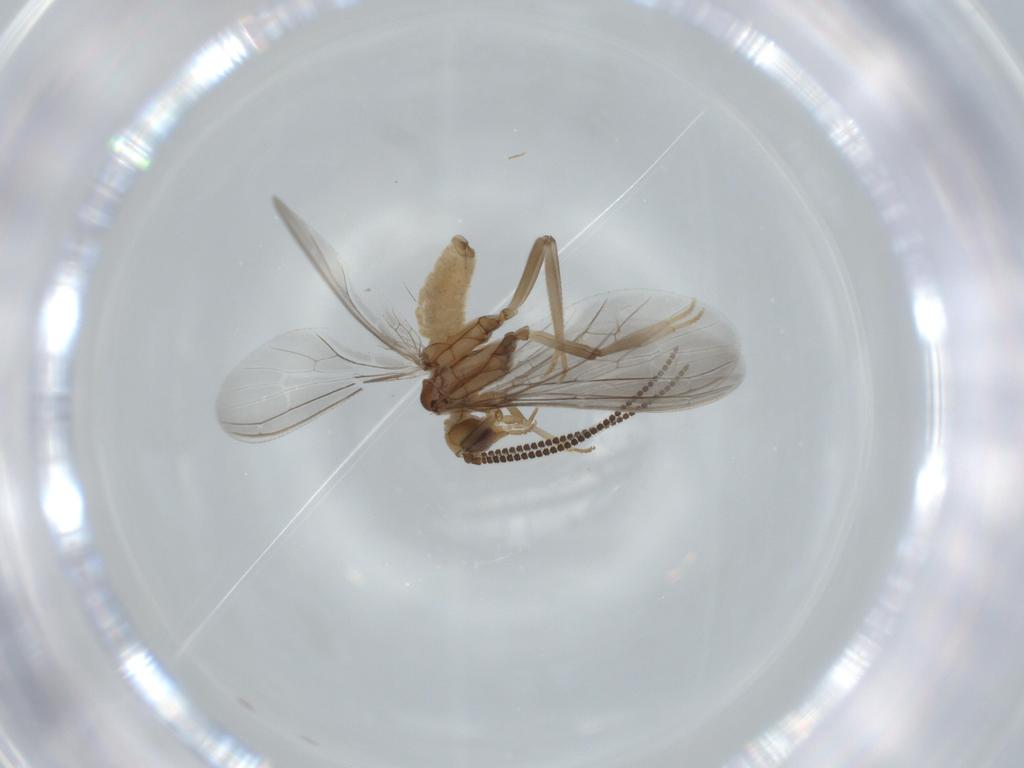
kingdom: Animalia
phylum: Arthropoda
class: Insecta
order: Neuroptera
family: Coniopterygidae
